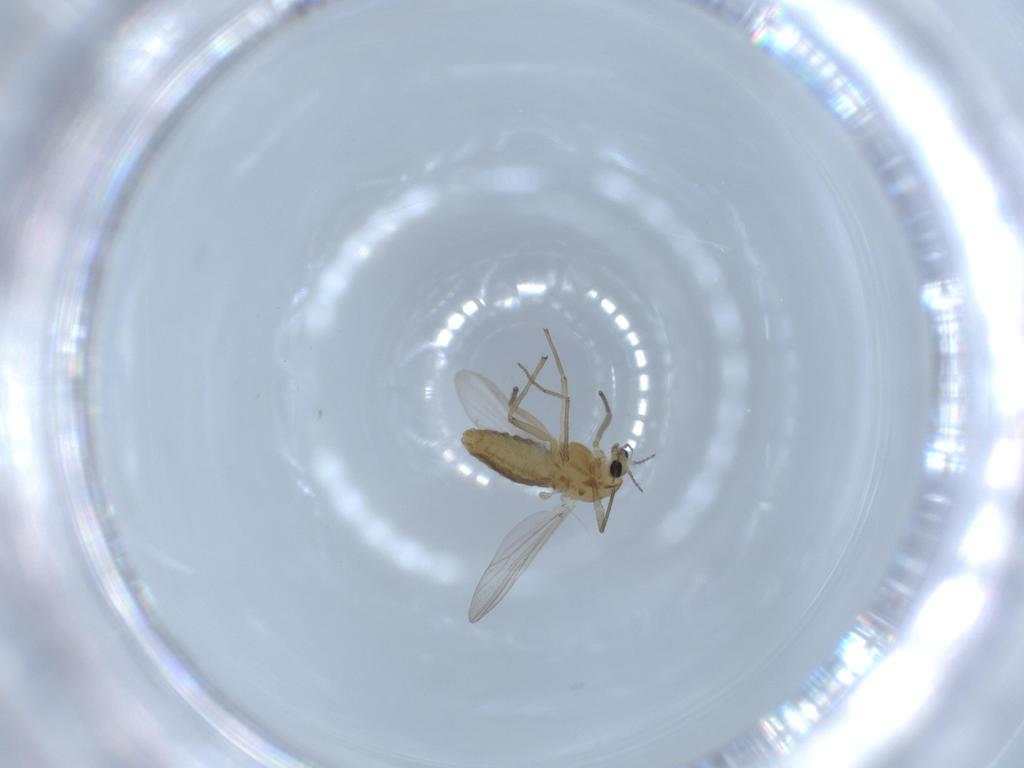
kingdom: Animalia
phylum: Arthropoda
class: Insecta
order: Diptera
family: Chironomidae
